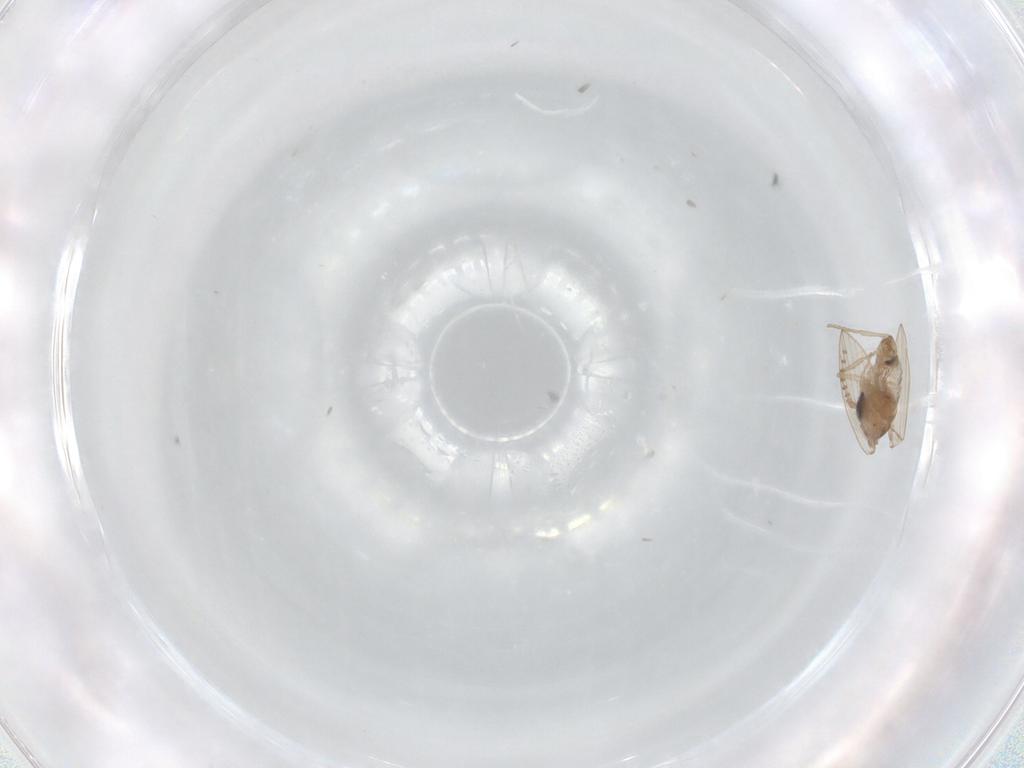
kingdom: Animalia
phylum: Arthropoda
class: Insecta
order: Diptera
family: Psychodidae
